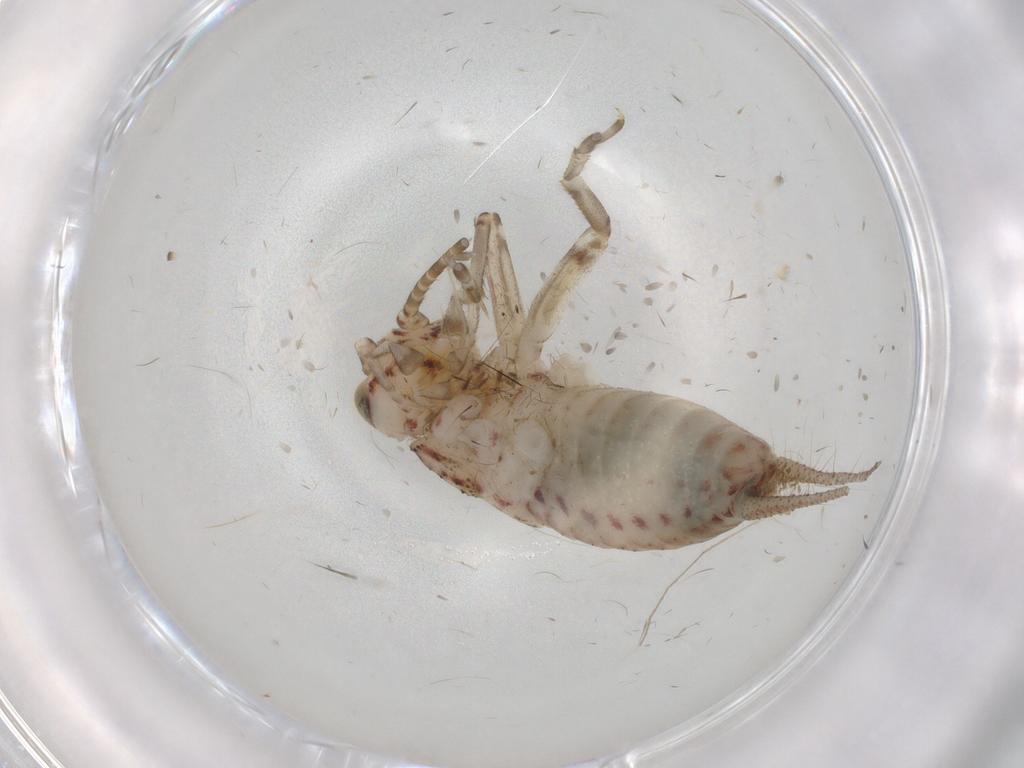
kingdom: Animalia
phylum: Arthropoda
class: Insecta
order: Orthoptera
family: Trigonidiidae
